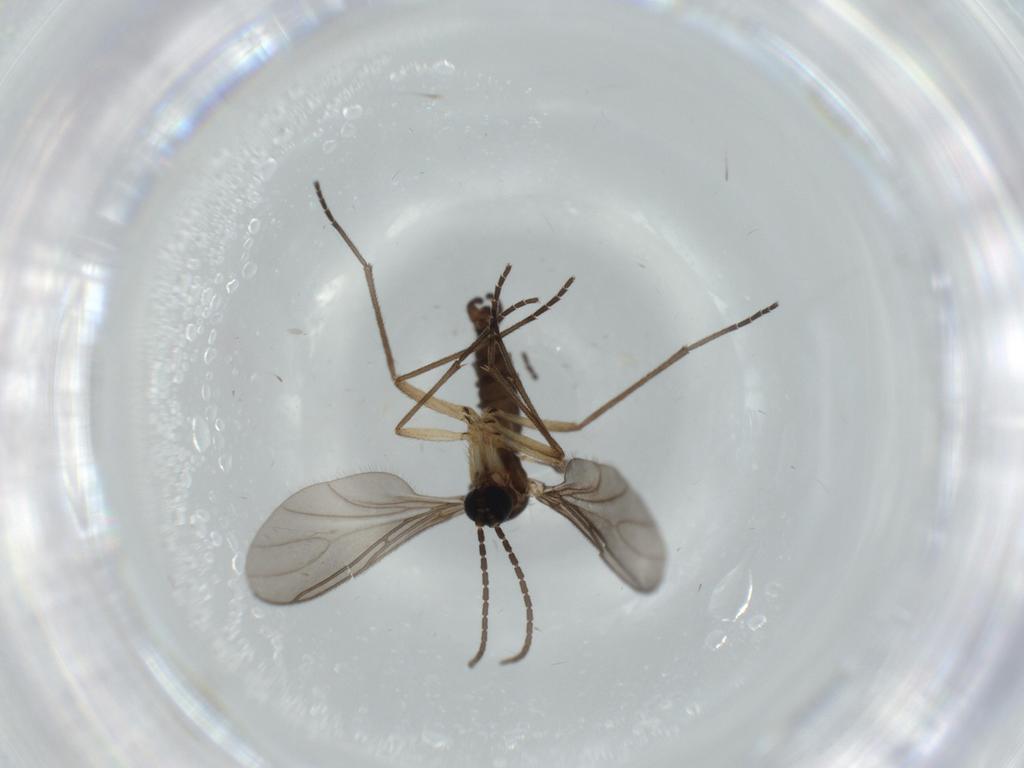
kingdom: Animalia
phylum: Arthropoda
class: Insecta
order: Diptera
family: Sciaridae
